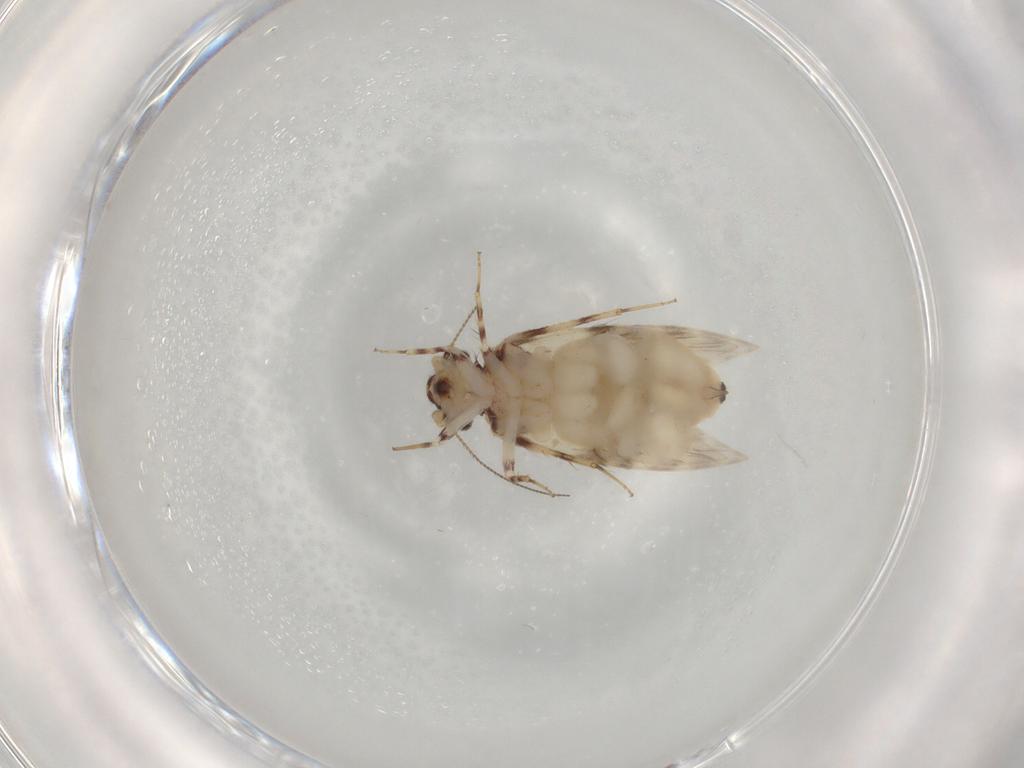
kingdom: Animalia
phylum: Arthropoda
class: Insecta
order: Psocodea
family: Lepidopsocidae
